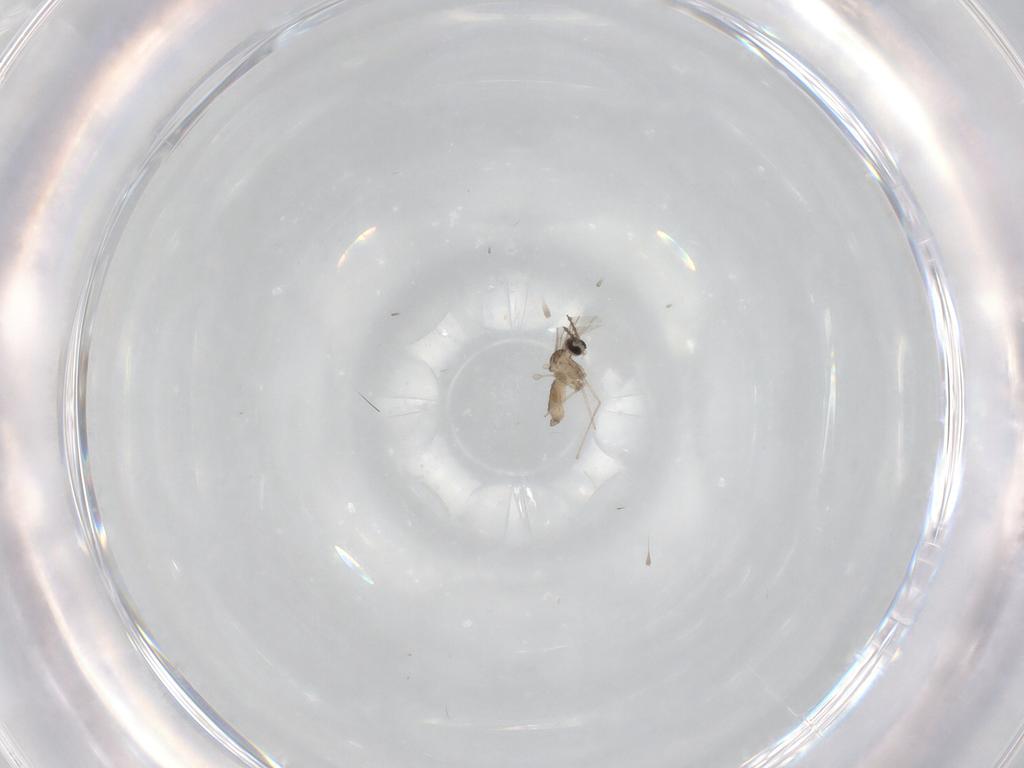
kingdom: Animalia
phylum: Arthropoda
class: Insecta
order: Diptera
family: Cecidomyiidae
